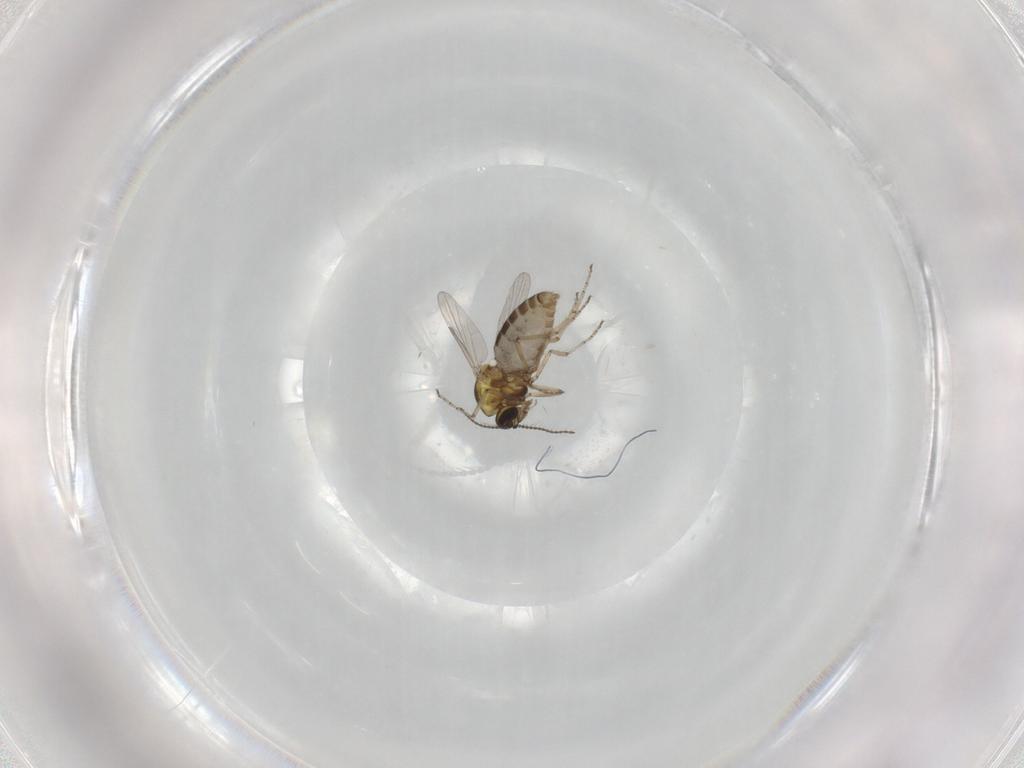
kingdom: Animalia
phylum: Arthropoda
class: Insecta
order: Diptera
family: Ceratopogonidae
